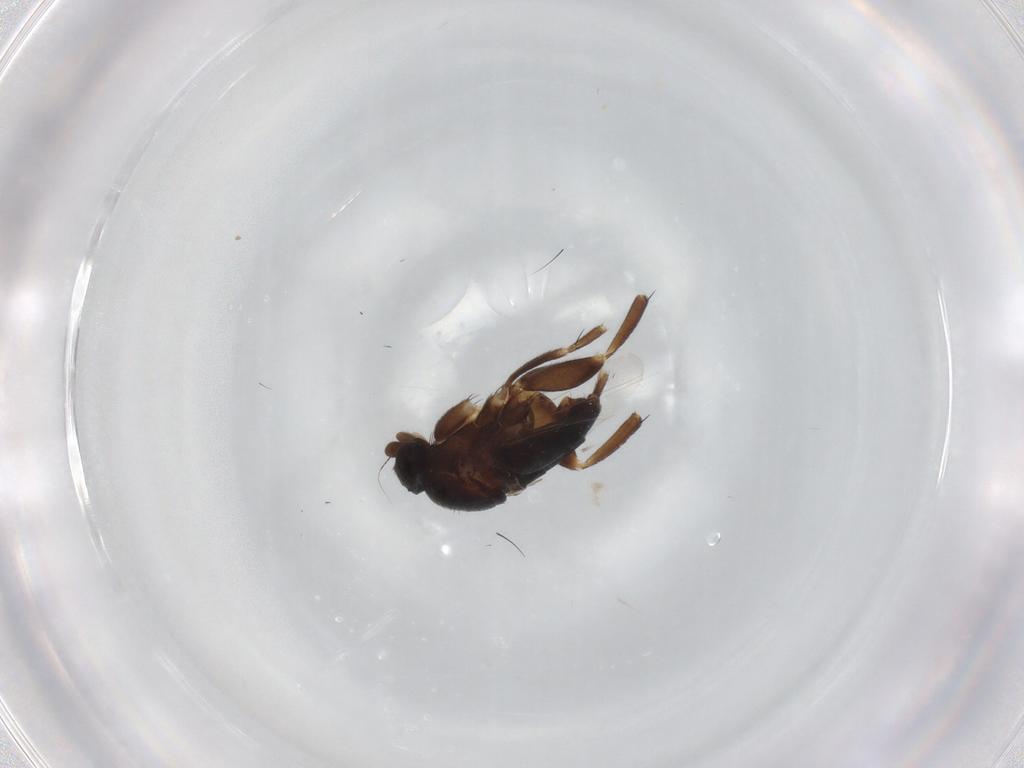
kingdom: Animalia
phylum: Arthropoda
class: Insecta
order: Diptera
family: Phoridae
